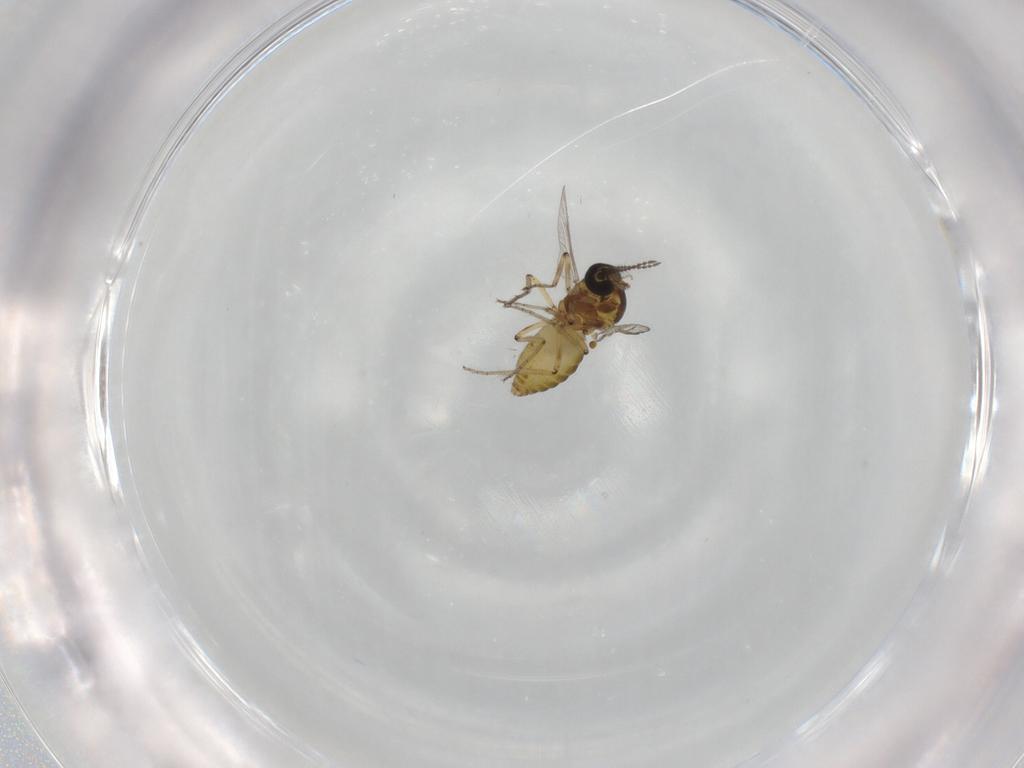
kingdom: Animalia
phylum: Arthropoda
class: Insecta
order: Diptera
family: Ceratopogonidae
